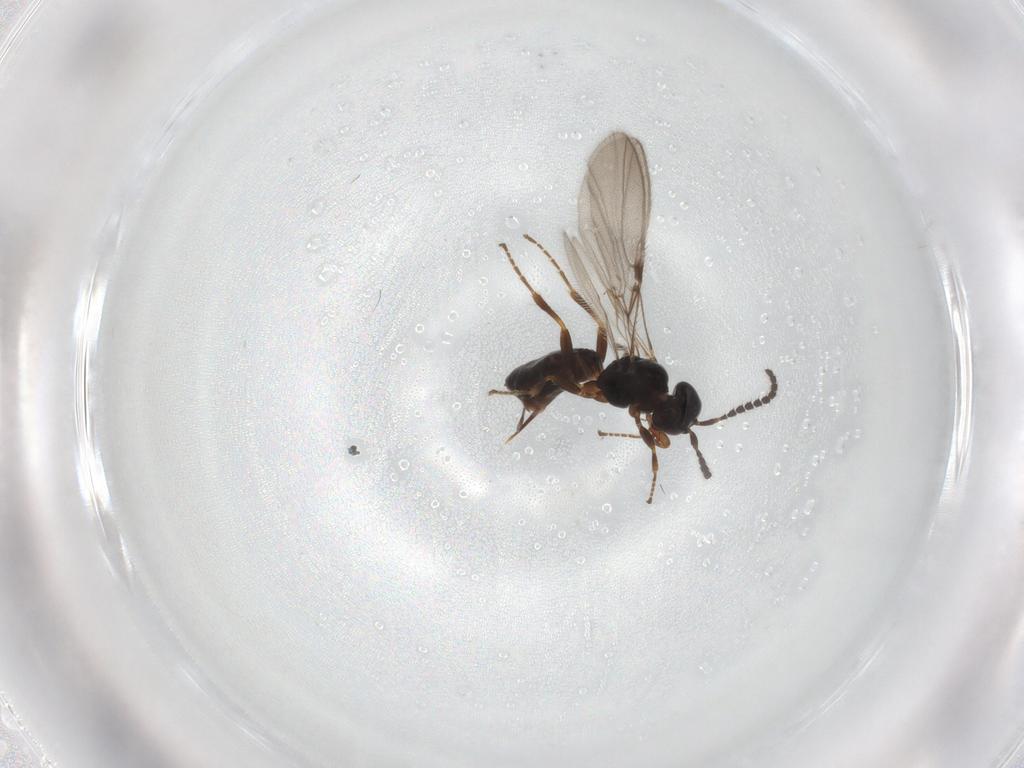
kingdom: Animalia
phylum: Arthropoda
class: Insecta
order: Hymenoptera
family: Braconidae
